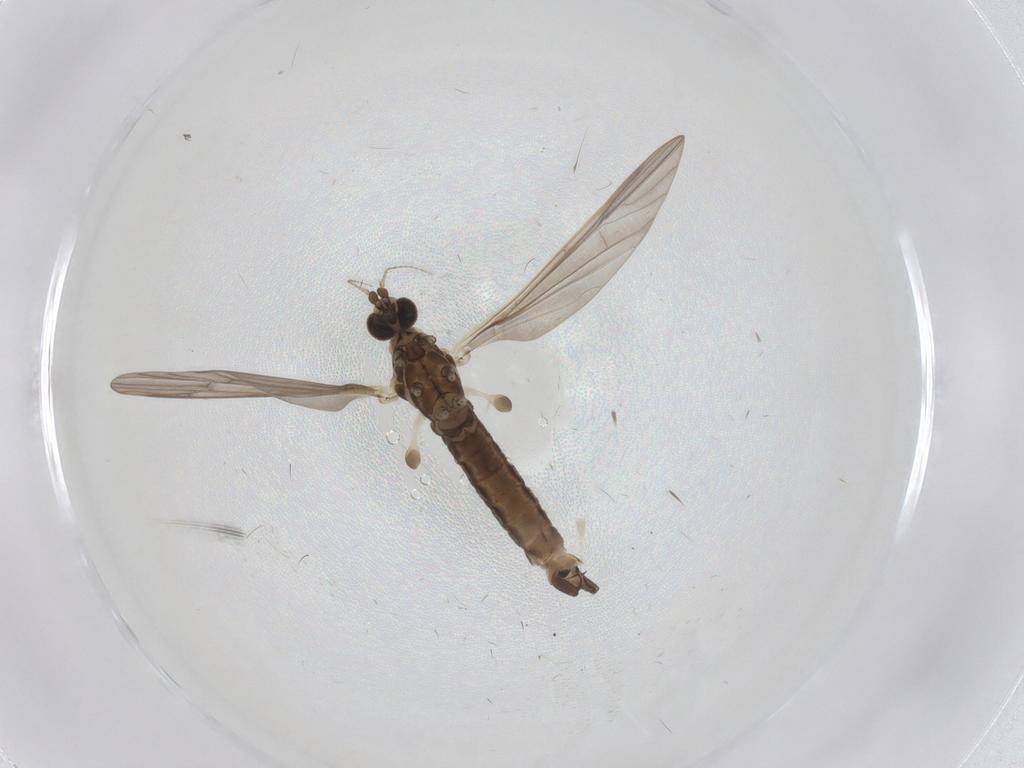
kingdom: Animalia
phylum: Arthropoda
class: Insecta
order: Diptera
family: Limoniidae
